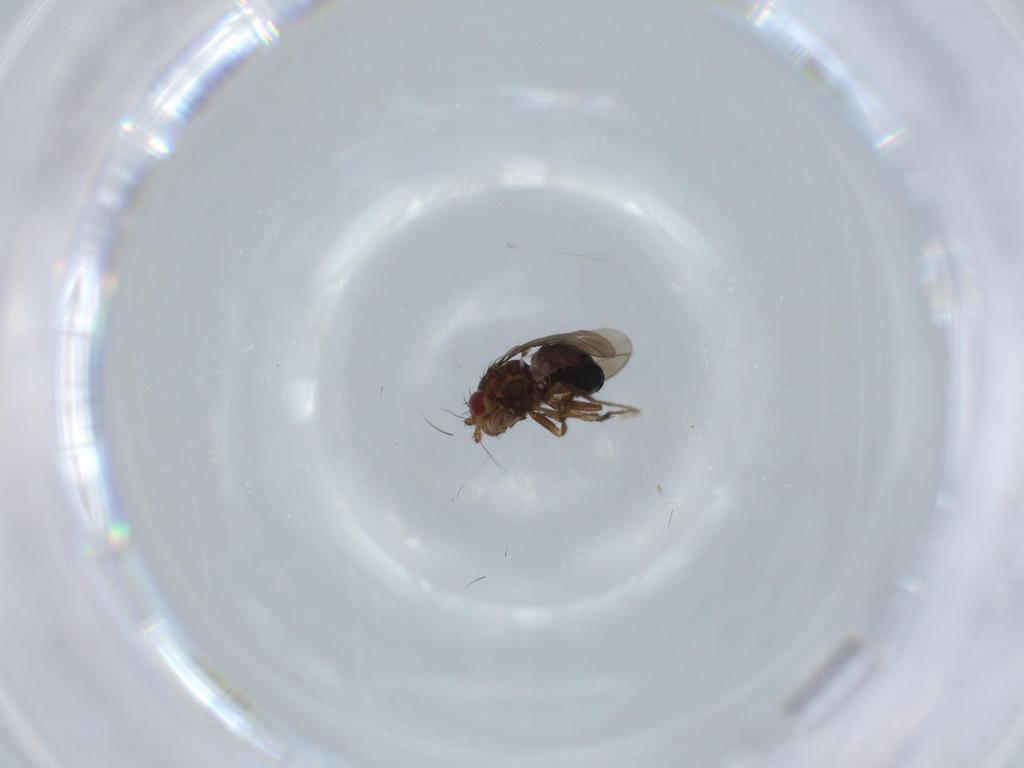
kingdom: Animalia
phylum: Arthropoda
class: Insecta
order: Diptera
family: Sphaeroceridae
